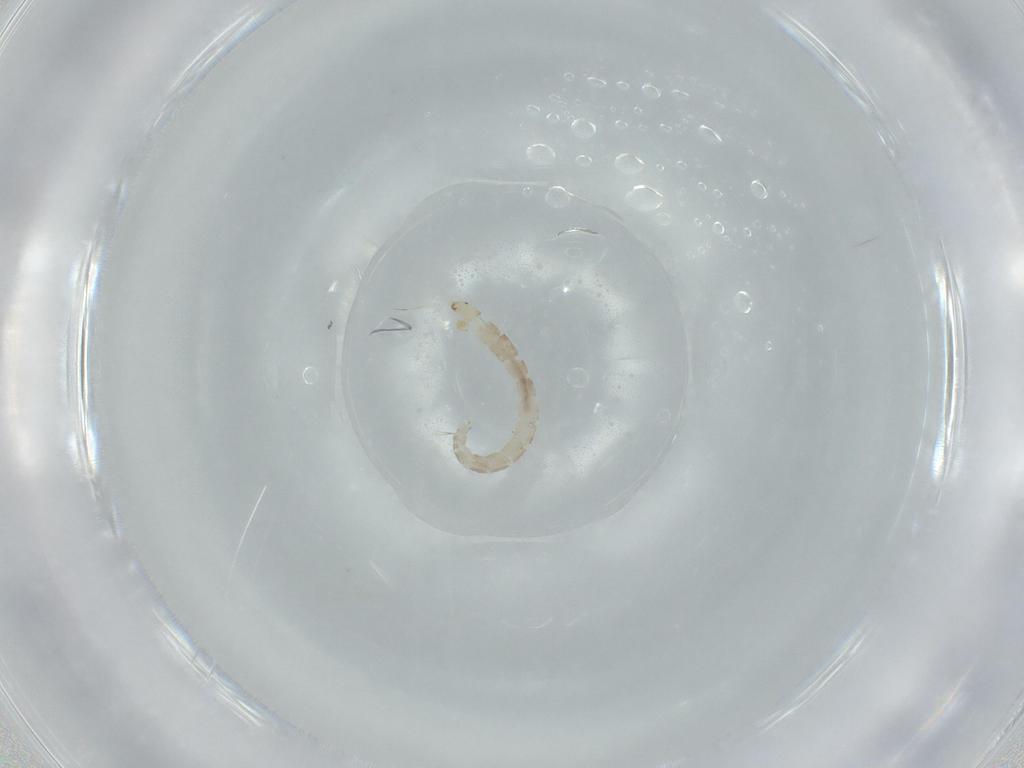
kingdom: Animalia
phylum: Arthropoda
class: Insecta
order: Diptera
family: Chironomidae
